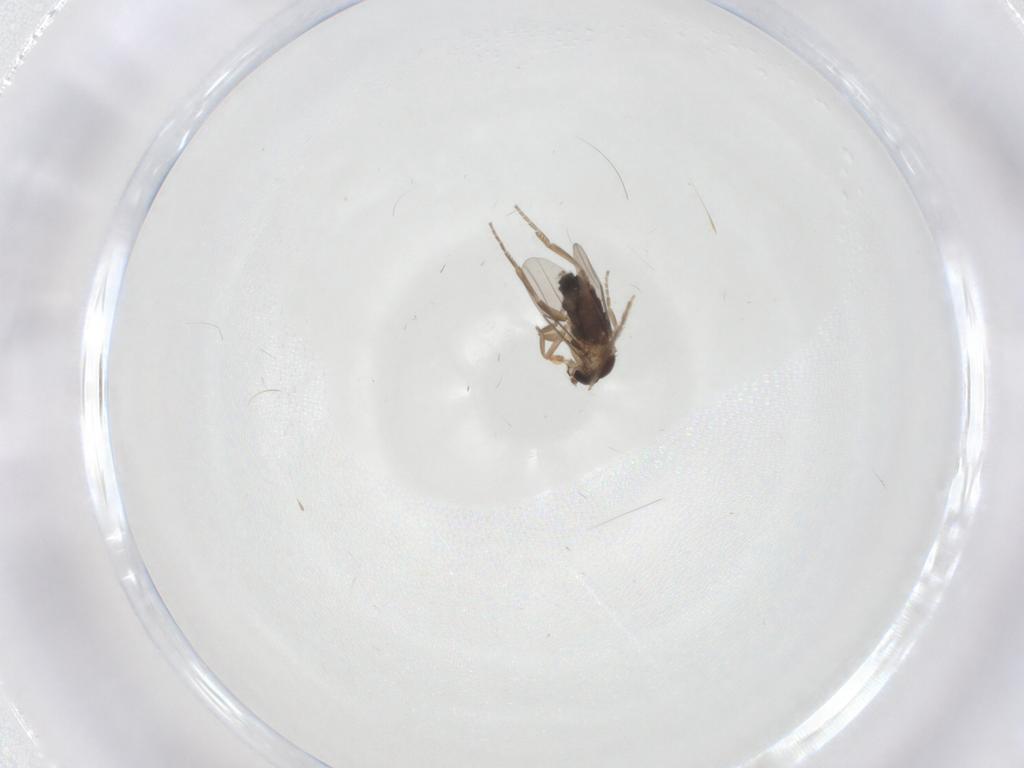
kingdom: Animalia
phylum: Arthropoda
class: Insecta
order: Diptera
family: Phoridae
